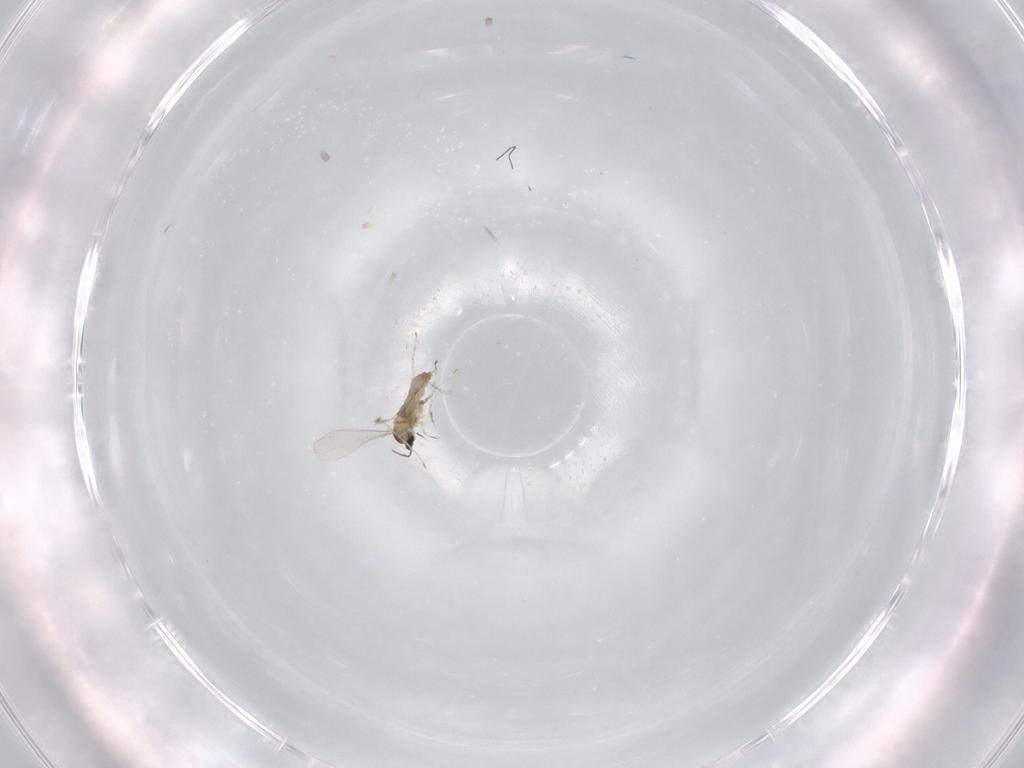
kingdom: Animalia
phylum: Arthropoda
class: Insecta
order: Diptera
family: Sciaridae
